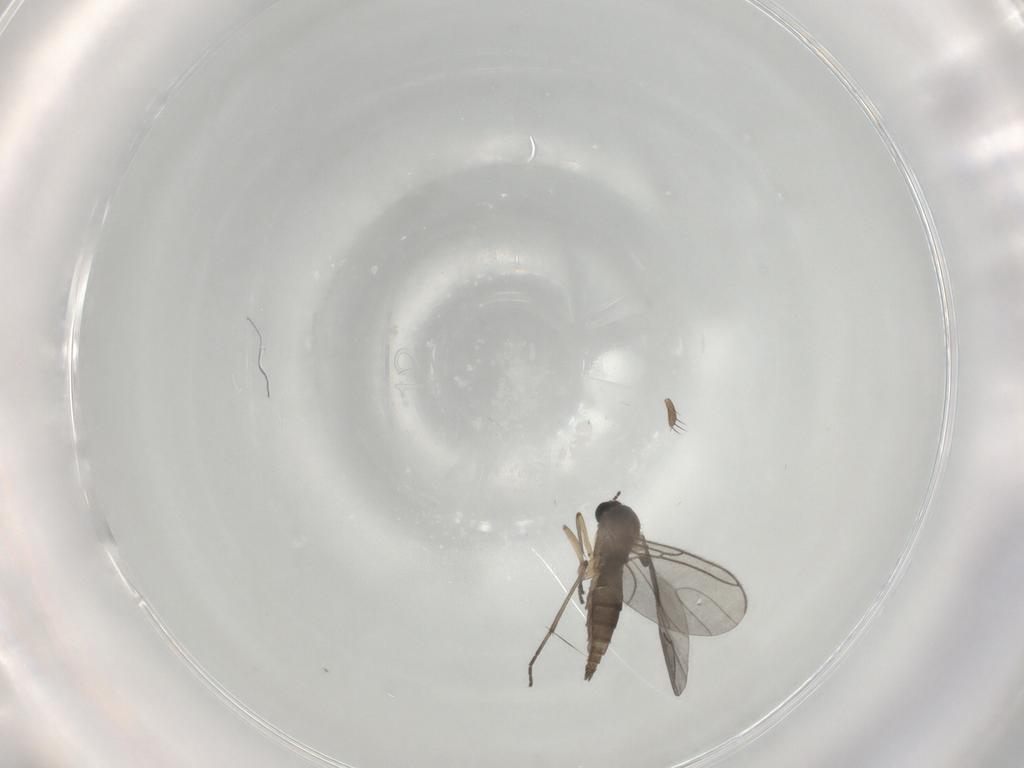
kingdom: Animalia
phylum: Arthropoda
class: Insecta
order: Diptera
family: Sciaridae
